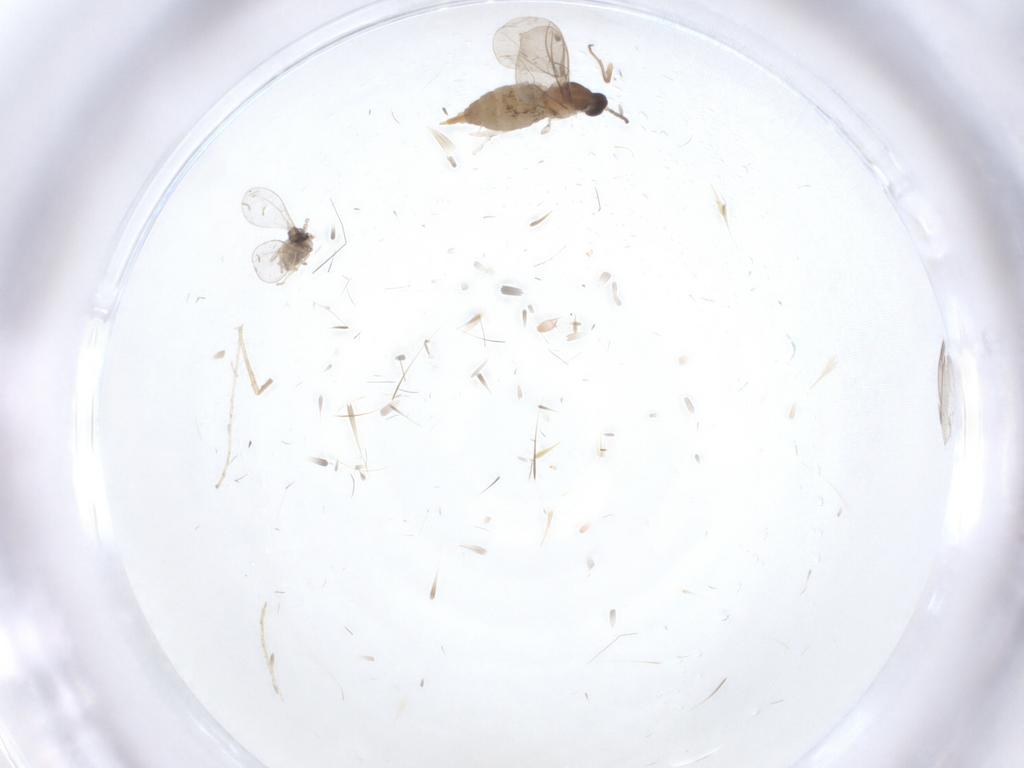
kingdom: Animalia
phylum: Arthropoda
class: Insecta
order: Diptera
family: Cecidomyiidae
